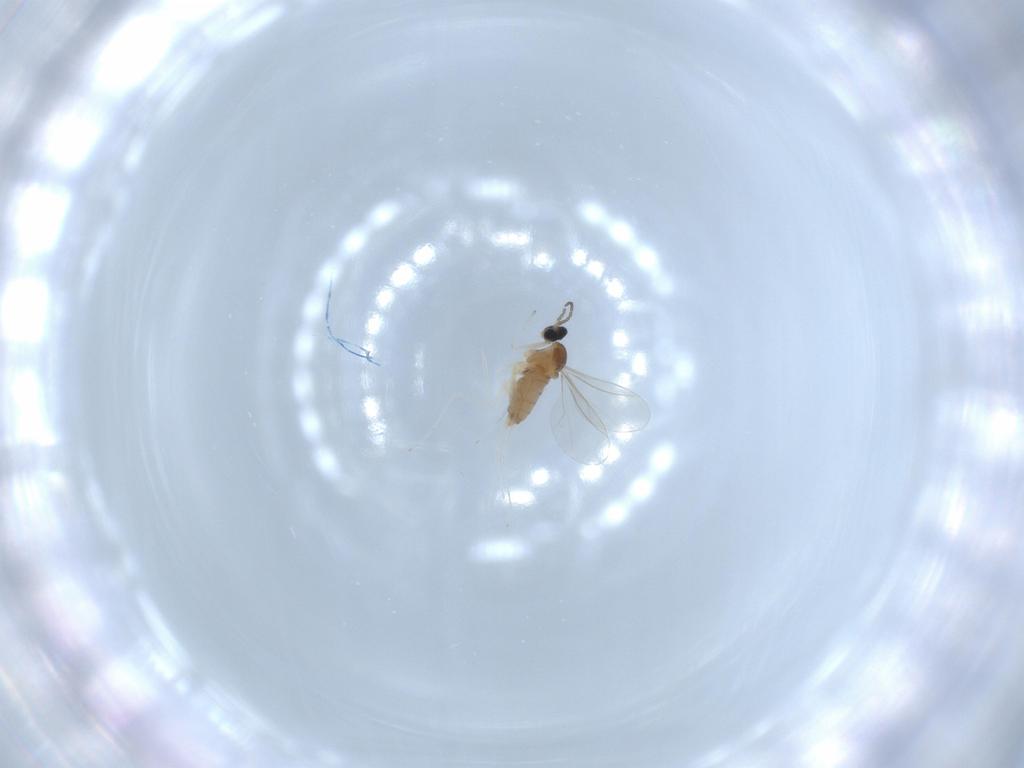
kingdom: Animalia
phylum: Arthropoda
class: Insecta
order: Diptera
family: Cecidomyiidae
